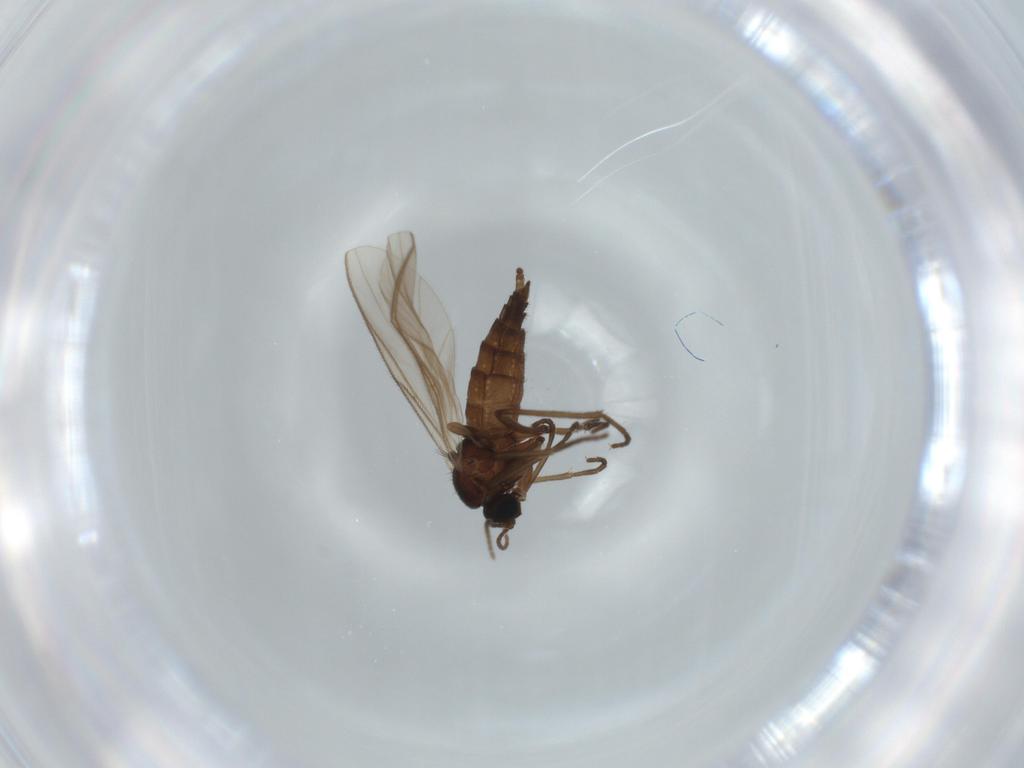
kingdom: Animalia
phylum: Arthropoda
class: Insecta
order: Diptera
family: Sciaridae
